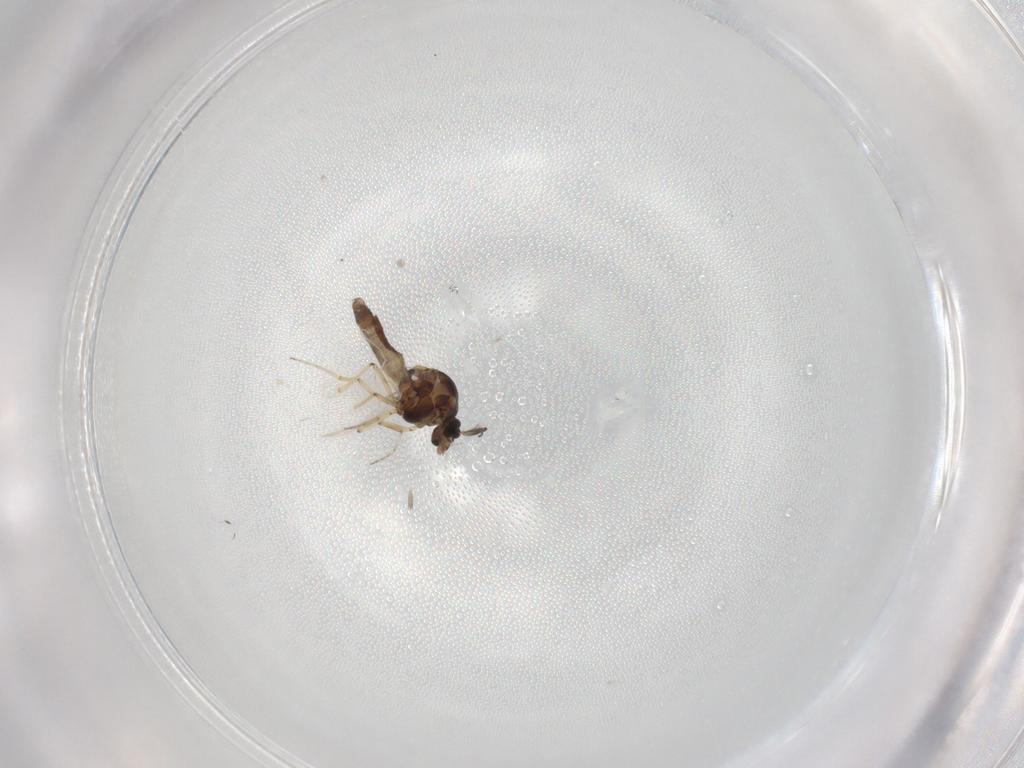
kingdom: Animalia
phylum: Arthropoda
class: Insecta
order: Diptera
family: Ceratopogonidae
